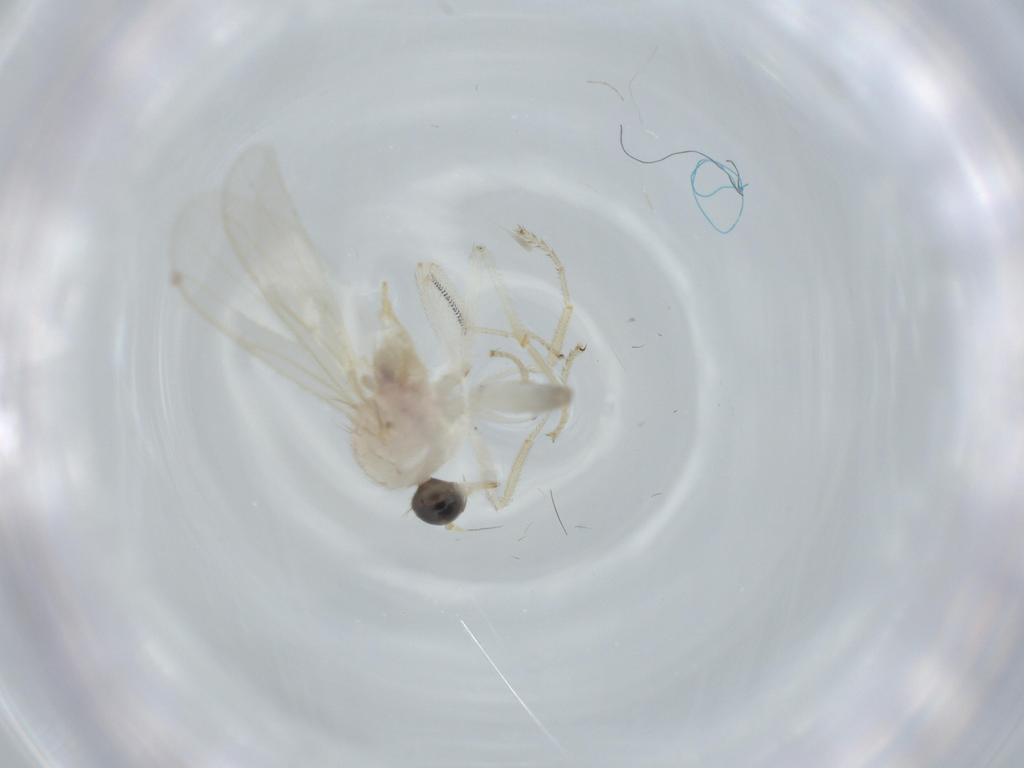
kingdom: Animalia
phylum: Arthropoda
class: Insecta
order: Diptera
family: Hybotidae
